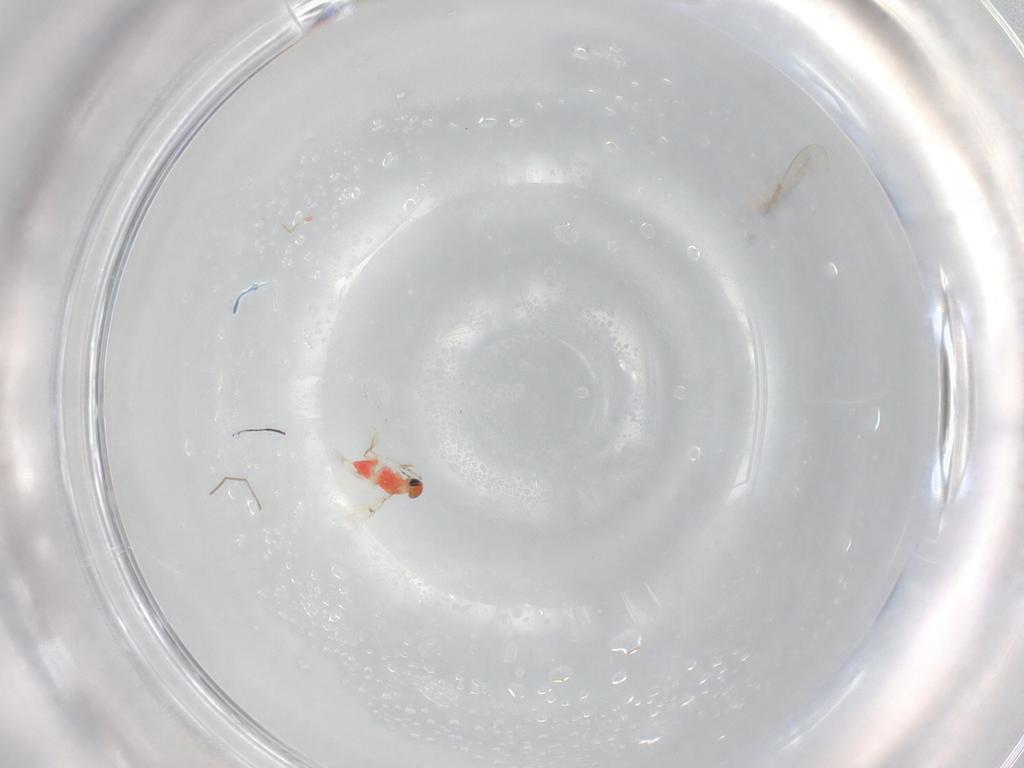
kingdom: Animalia
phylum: Arthropoda
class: Insecta
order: Hymenoptera
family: Trichogrammatidae
